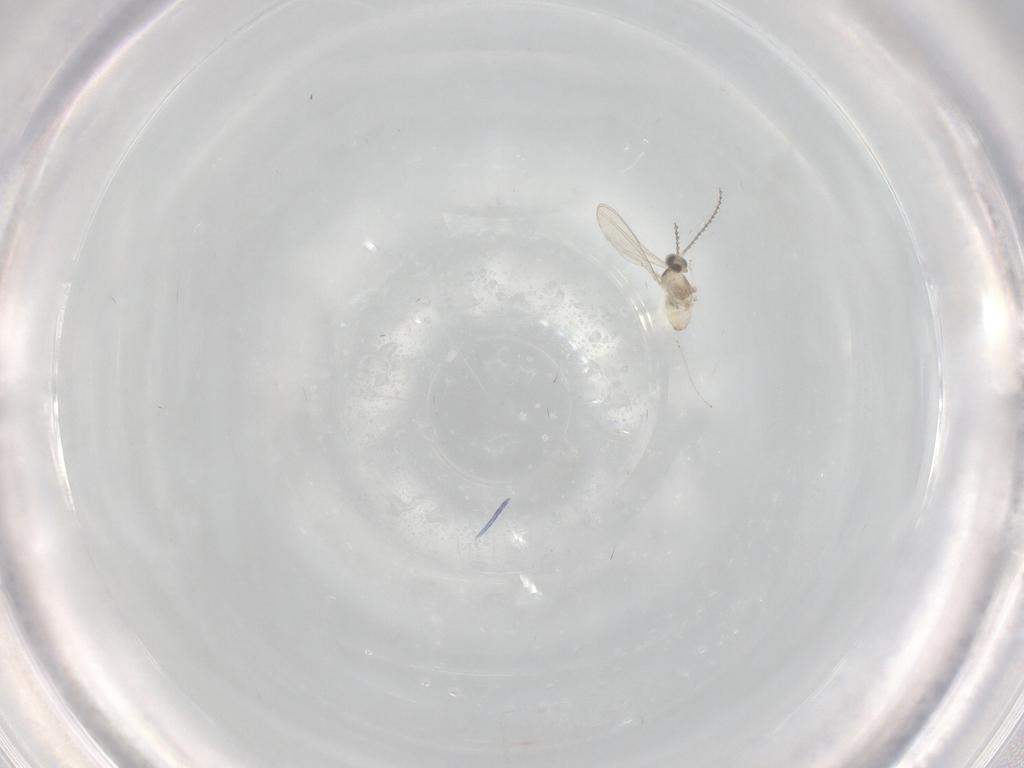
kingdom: Animalia
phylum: Arthropoda
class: Insecta
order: Diptera
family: Cecidomyiidae
